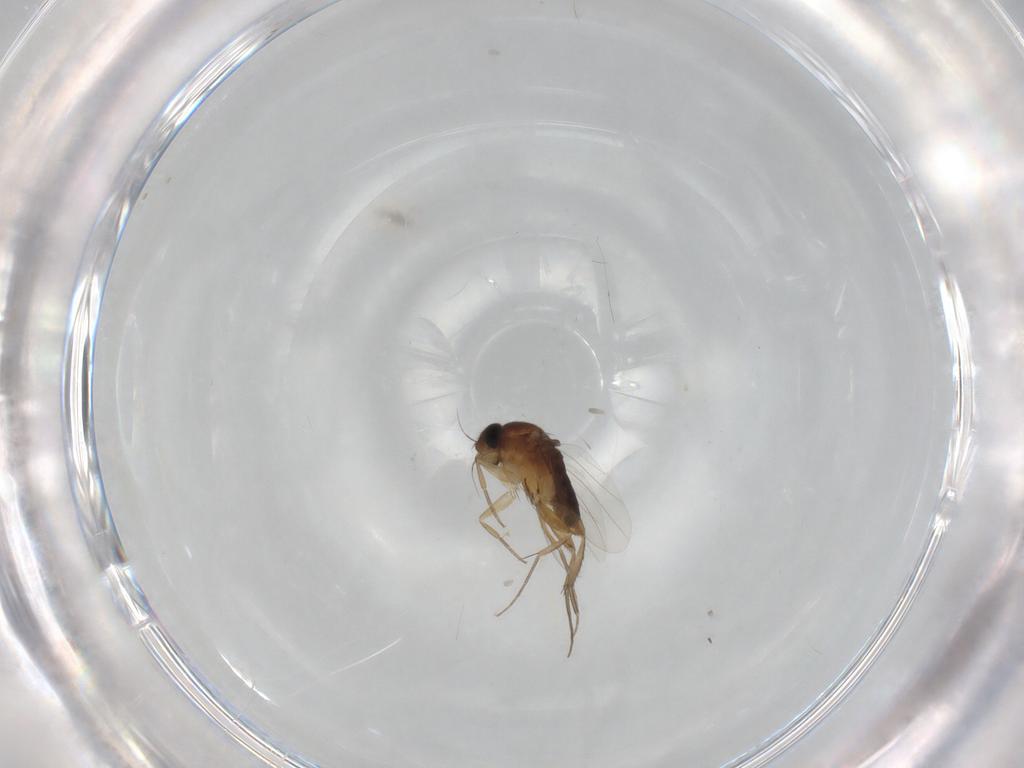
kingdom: Animalia
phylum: Arthropoda
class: Insecta
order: Diptera
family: Phoridae
